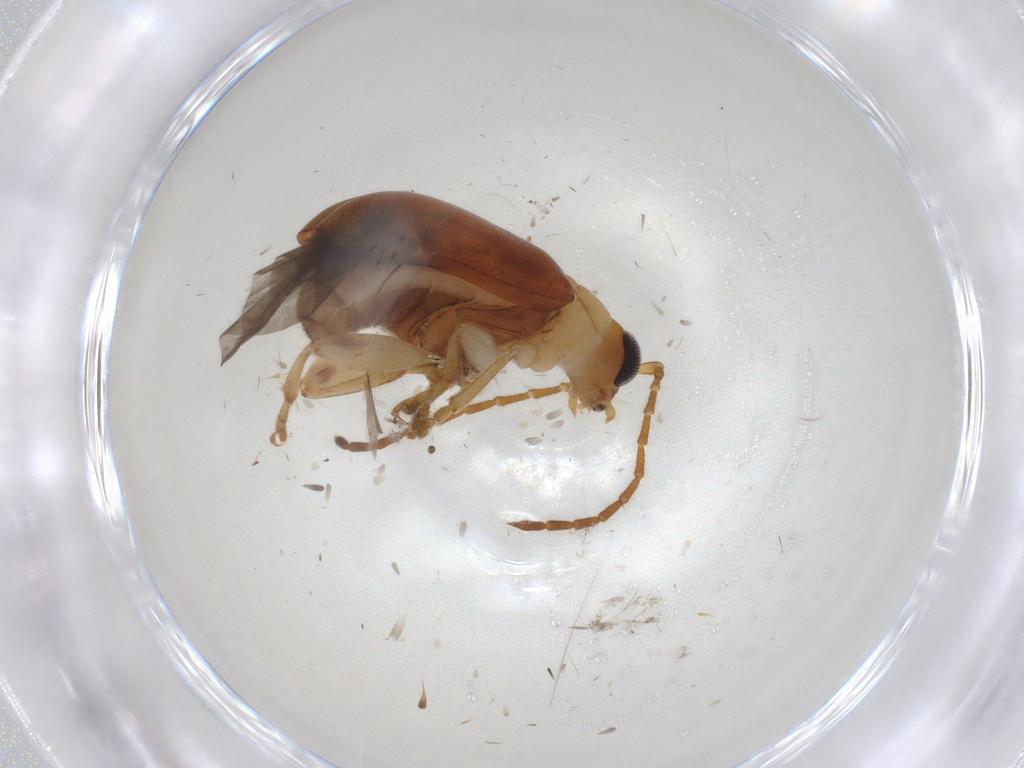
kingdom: Animalia
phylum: Arthropoda
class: Insecta
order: Coleoptera
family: Chrysomelidae
